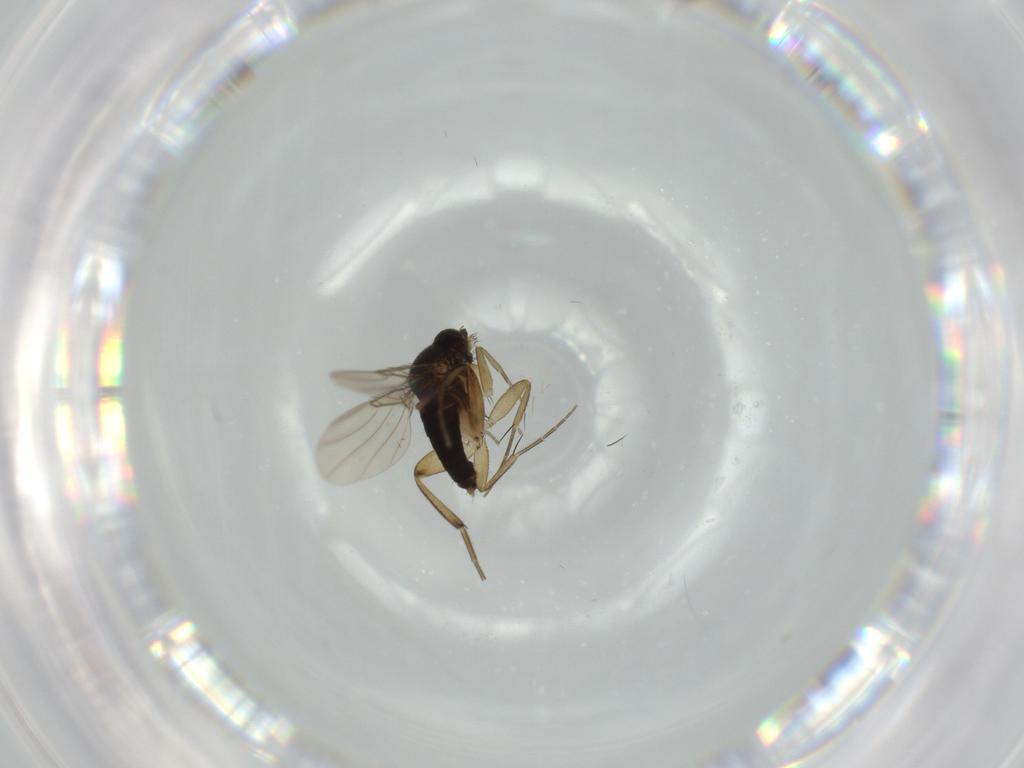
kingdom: Animalia
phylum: Arthropoda
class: Insecta
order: Diptera
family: Phoridae
